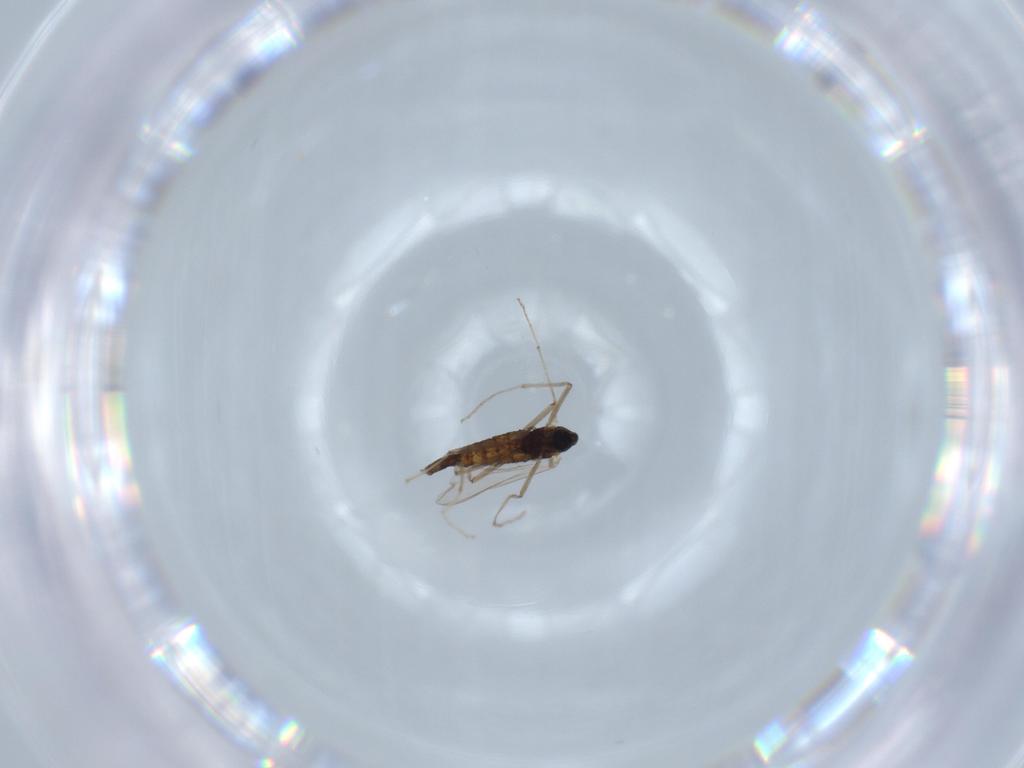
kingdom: Animalia
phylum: Arthropoda
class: Insecta
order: Diptera
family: Chironomidae
